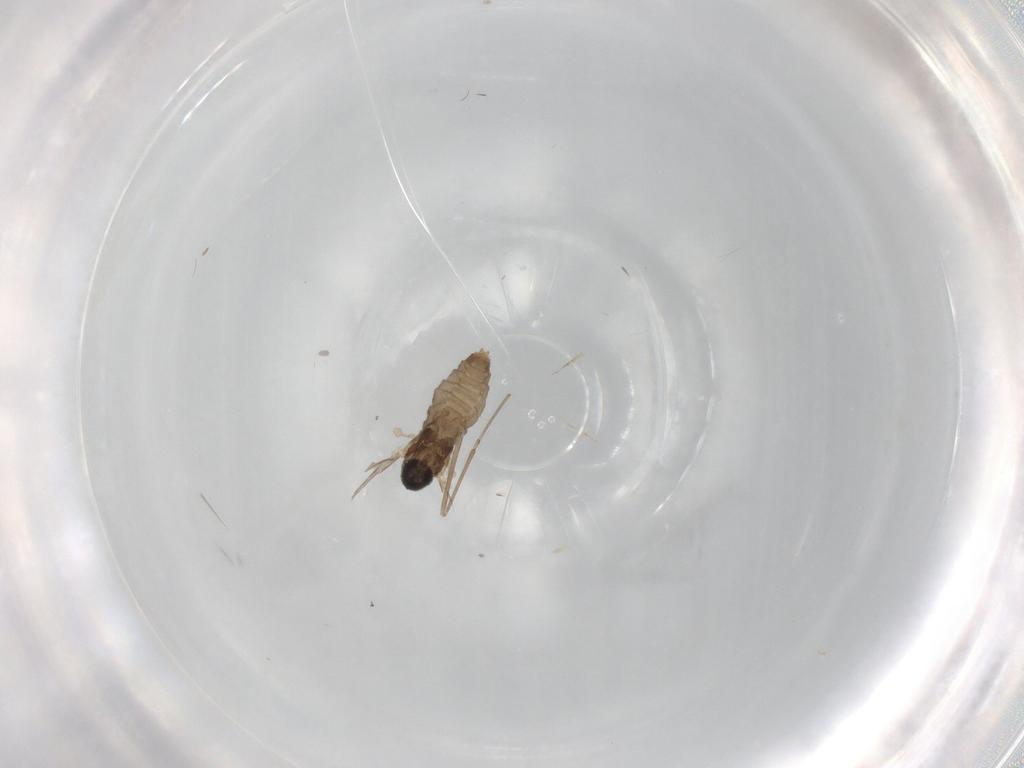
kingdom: Animalia
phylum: Arthropoda
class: Insecta
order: Diptera
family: Cecidomyiidae
